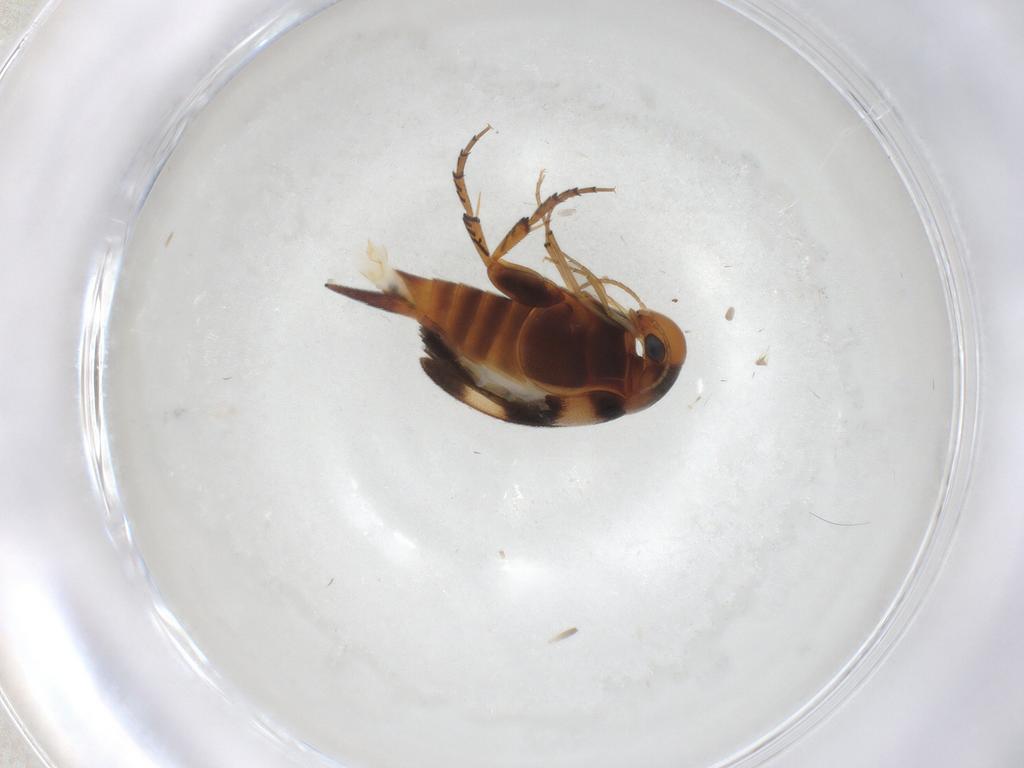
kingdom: Animalia
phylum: Arthropoda
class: Insecta
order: Coleoptera
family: Mordellidae
